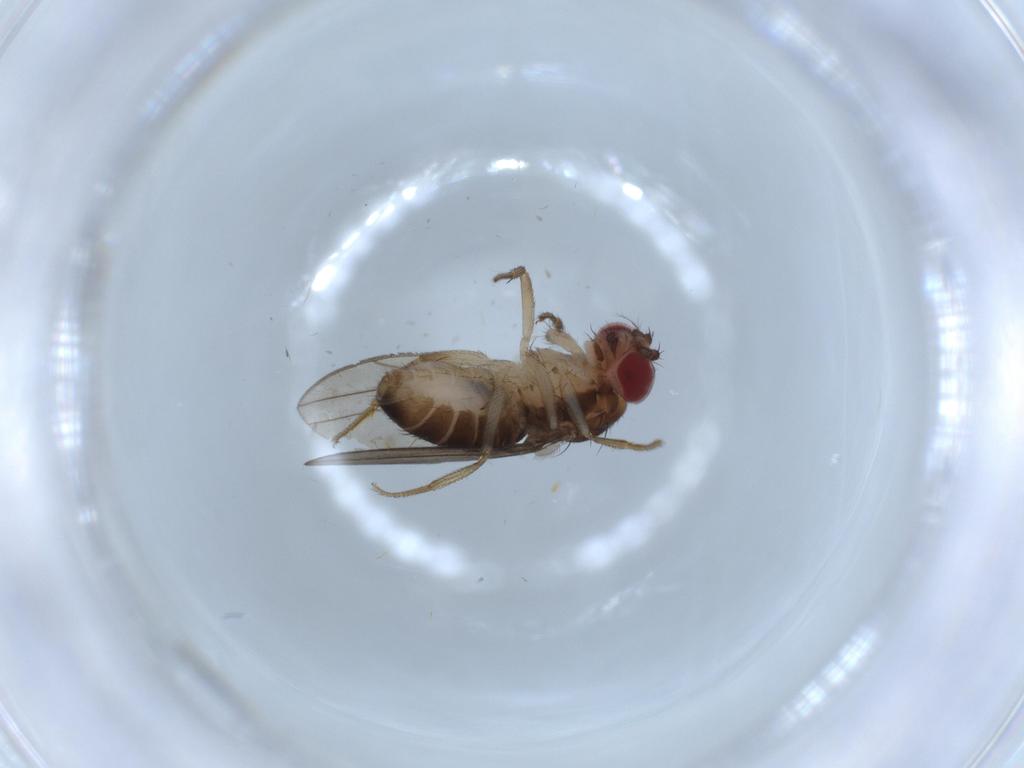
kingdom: Animalia
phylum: Arthropoda
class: Insecta
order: Diptera
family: Drosophilidae
